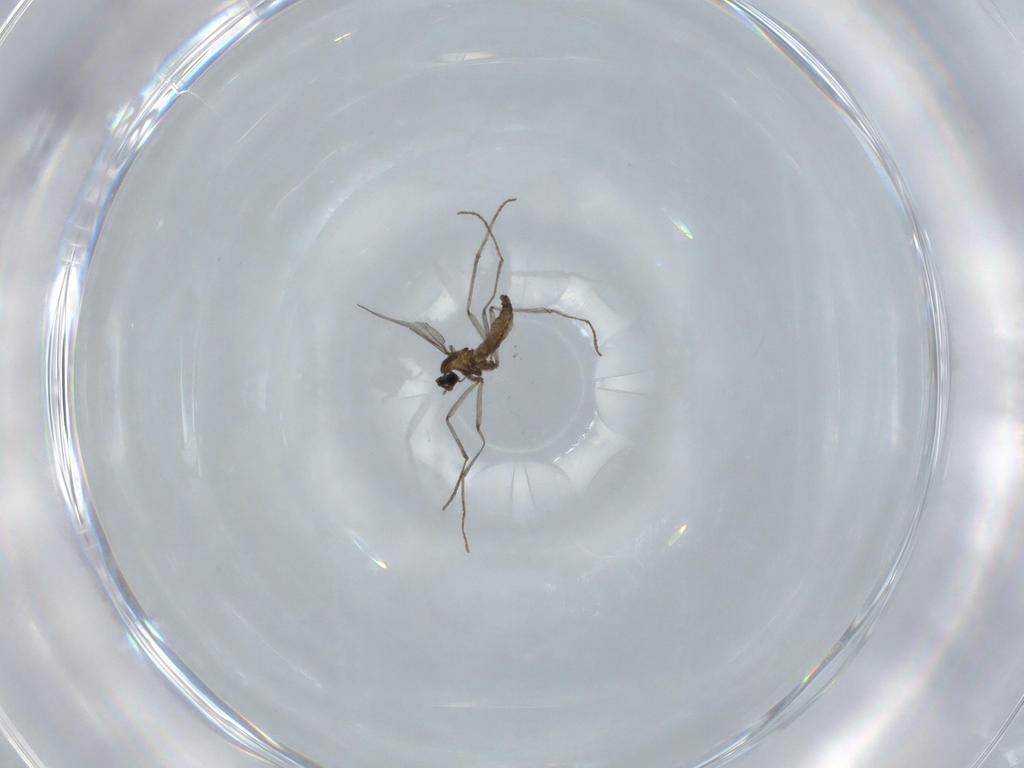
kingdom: Animalia
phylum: Arthropoda
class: Insecta
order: Diptera
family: Cecidomyiidae
